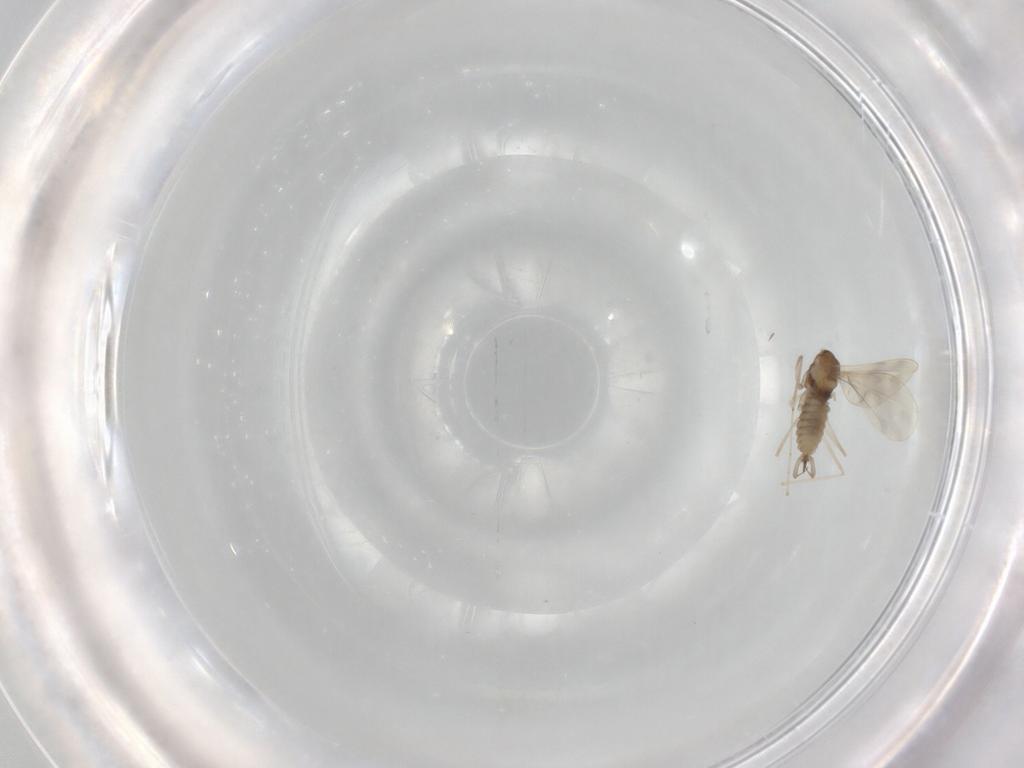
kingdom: Animalia
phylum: Arthropoda
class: Insecta
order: Diptera
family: Cecidomyiidae
